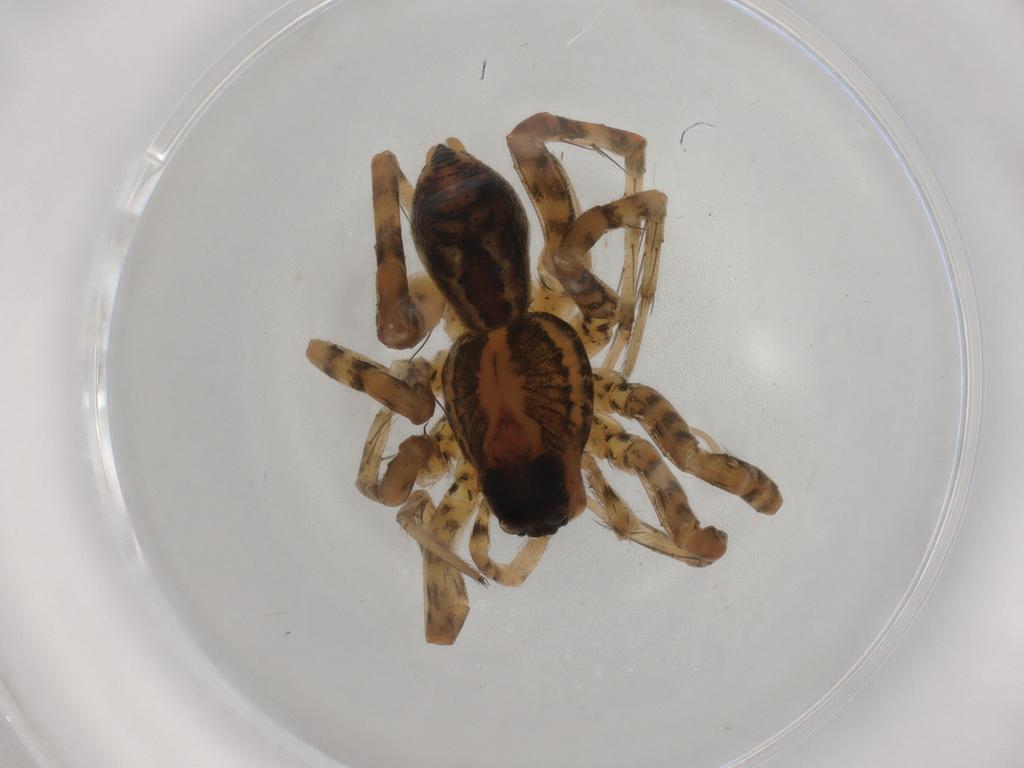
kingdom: Animalia
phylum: Arthropoda
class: Arachnida
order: Araneae
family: Lycosidae
